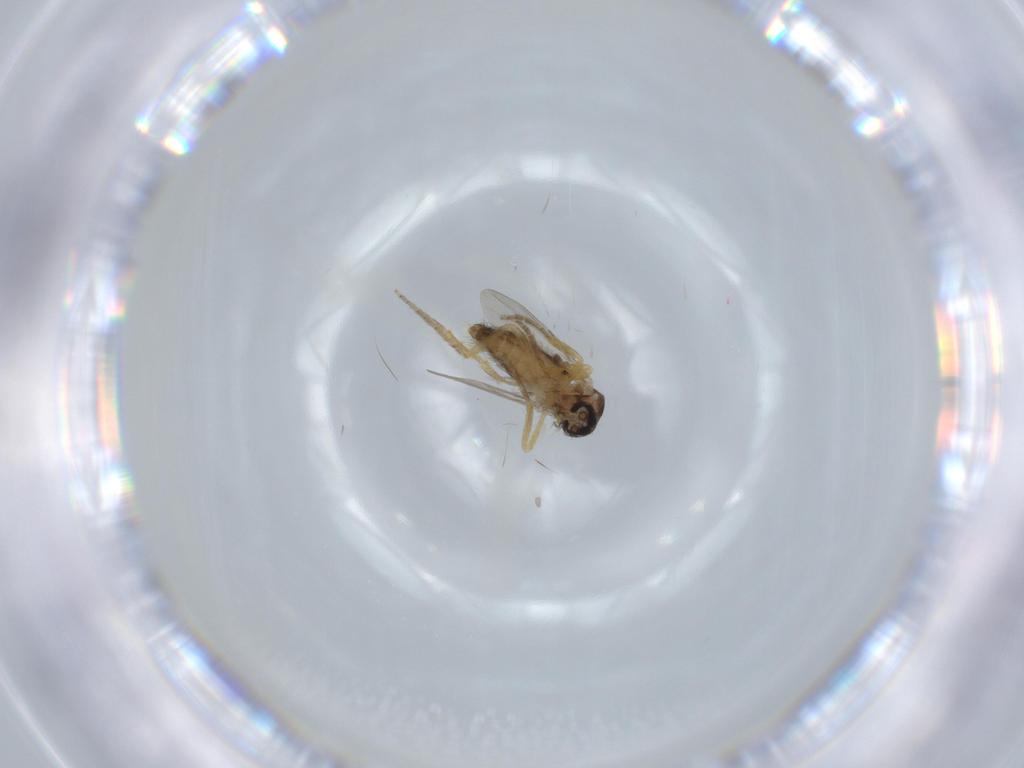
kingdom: Animalia
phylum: Arthropoda
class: Insecta
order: Diptera
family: Ceratopogonidae
